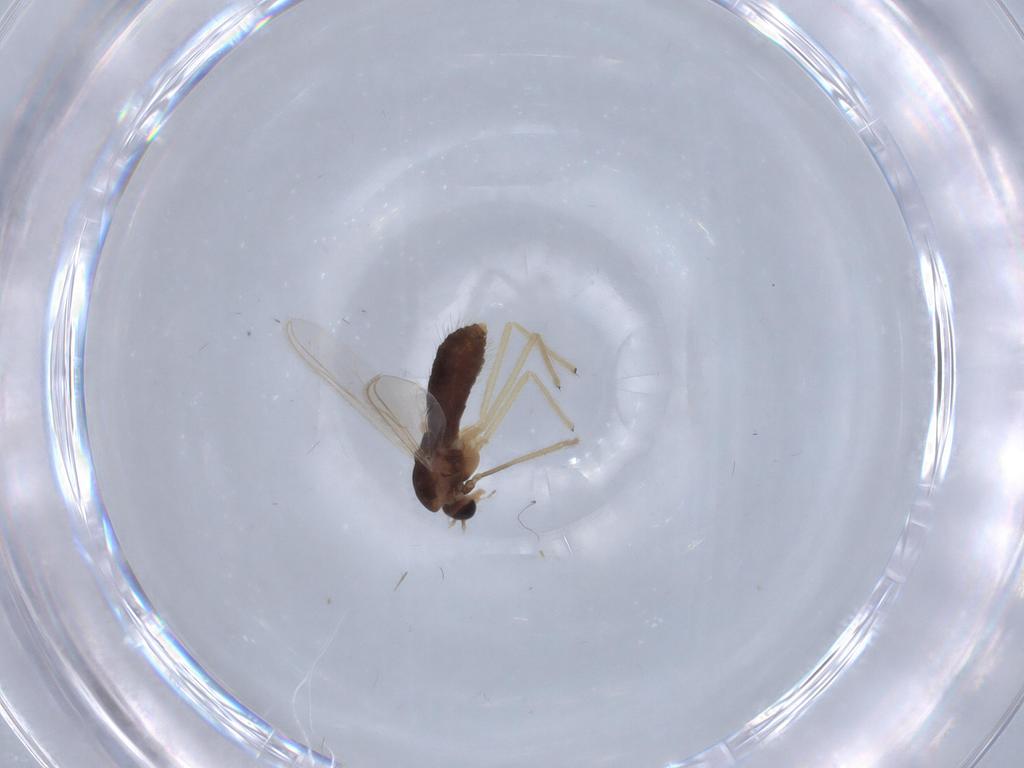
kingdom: Animalia
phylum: Arthropoda
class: Insecta
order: Diptera
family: Chironomidae
